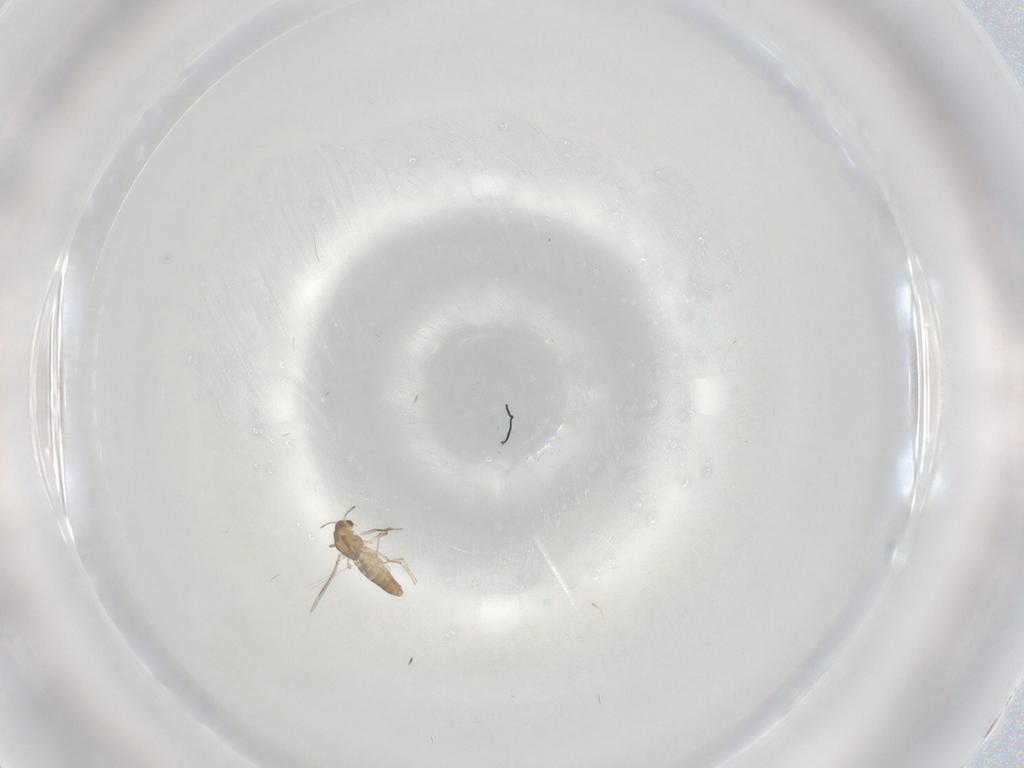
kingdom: Animalia
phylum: Arthropoda
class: Insecta
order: Diptera
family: Chironomidae
